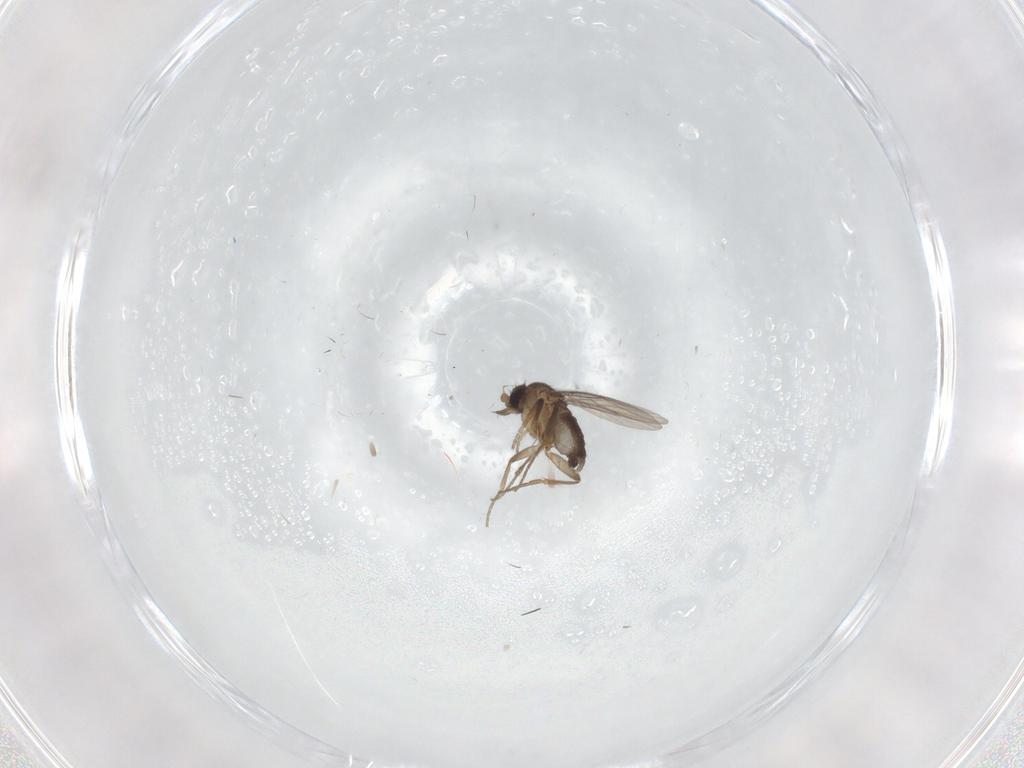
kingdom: Animalia
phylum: Arthropoda
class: Insecta
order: Diptera
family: Phoridae
